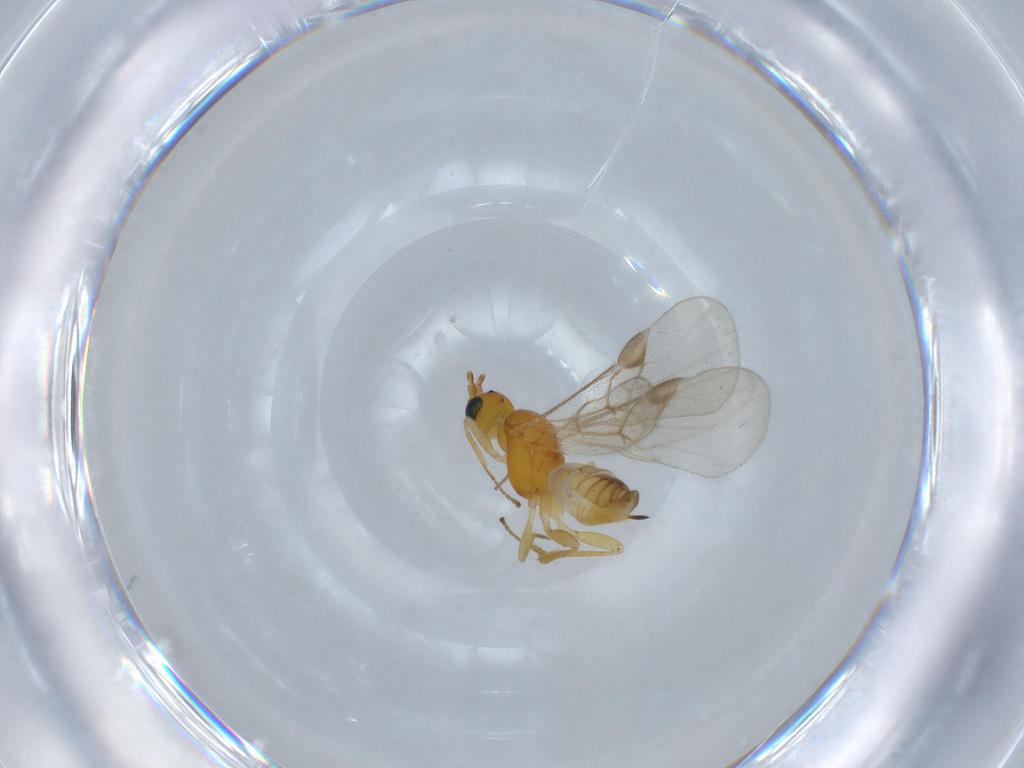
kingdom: Animalia
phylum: Arthropoda
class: Insecta
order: Hymenoptera
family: Braconidae
